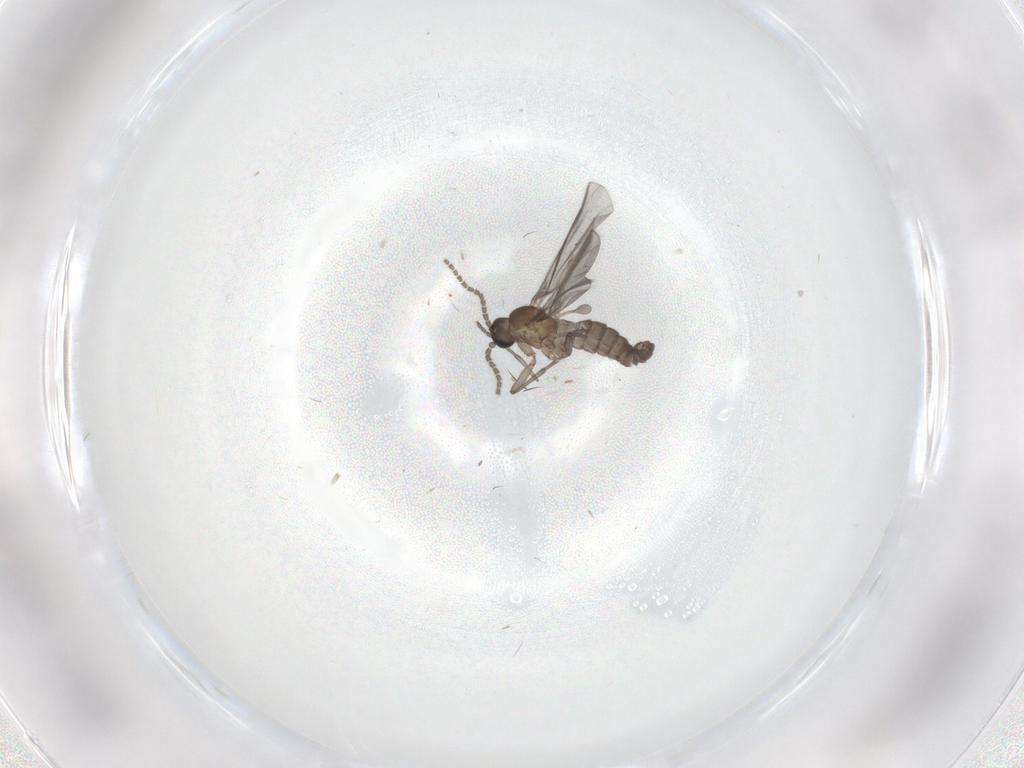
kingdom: Animalia
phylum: Arthropoda
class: Insecta
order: Diptera
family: Sciaridae
